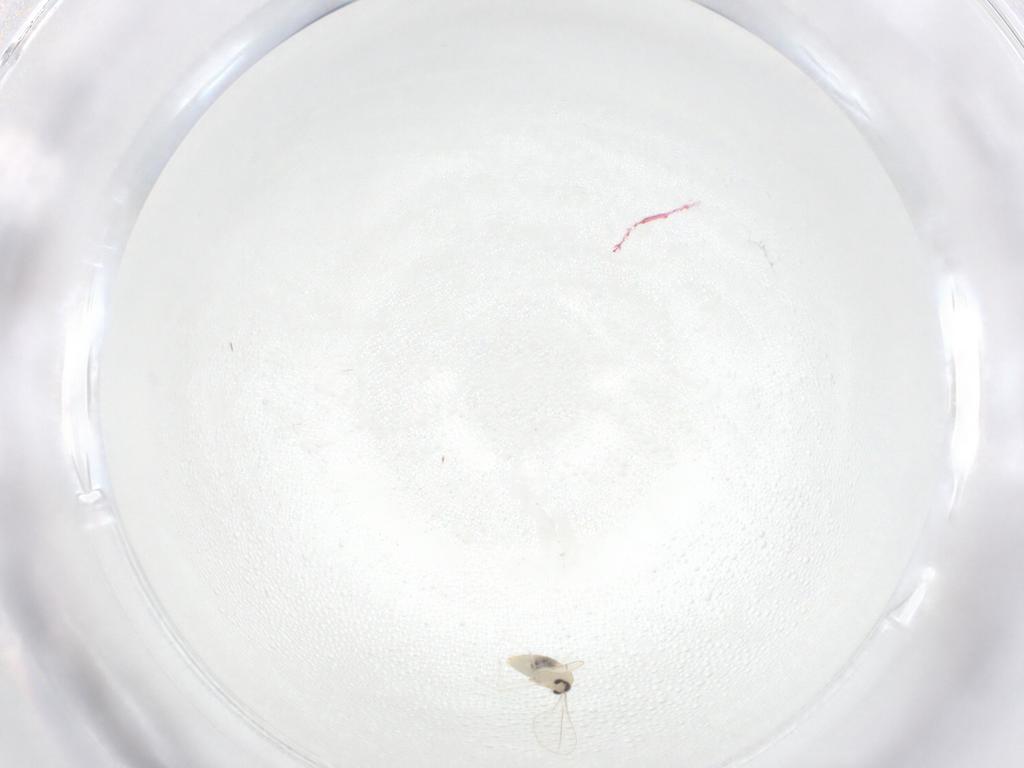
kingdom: Animalia
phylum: Arthropoda
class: Insecta
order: Diptera
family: Cecidomyiidae
